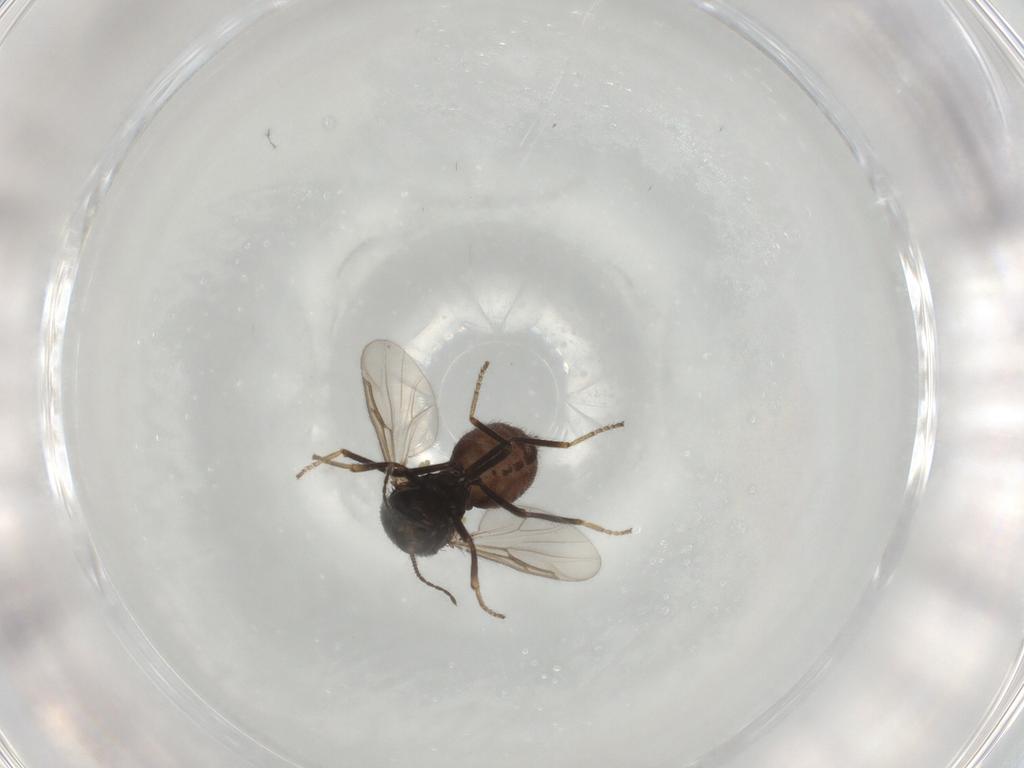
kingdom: Animalia
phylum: Arthropoda
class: Insecta
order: Diptera
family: Ceratopogonidae
